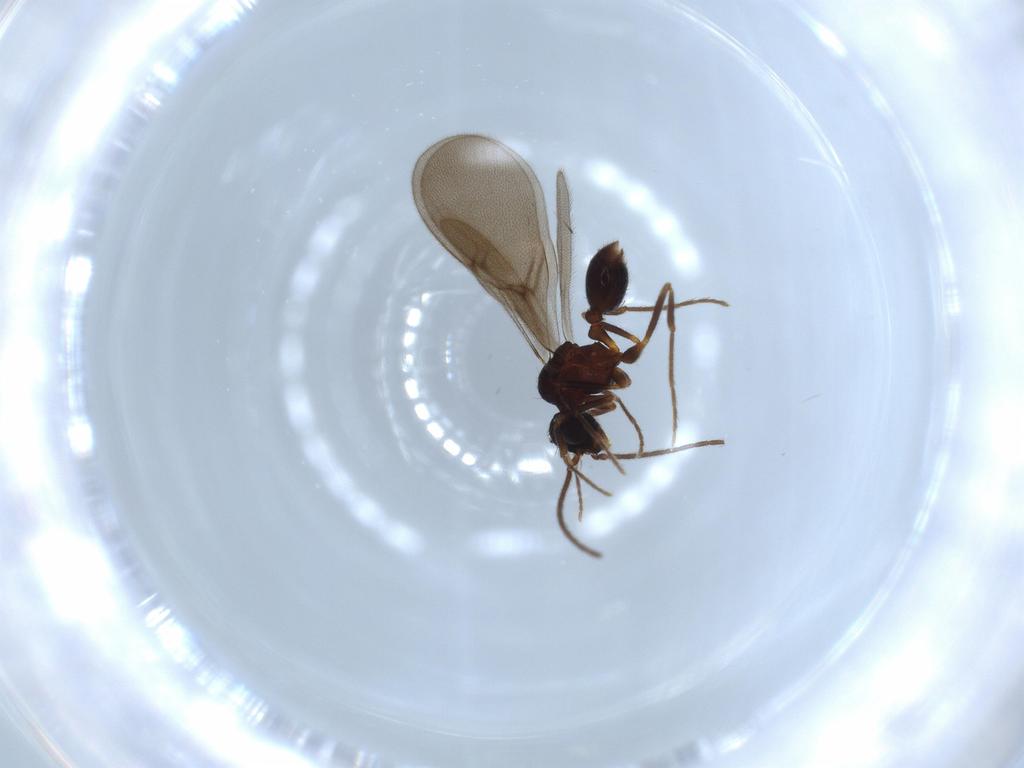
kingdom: Animalia
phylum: Arthropoda
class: Insecta
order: Hymenoptera
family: Formicidae
